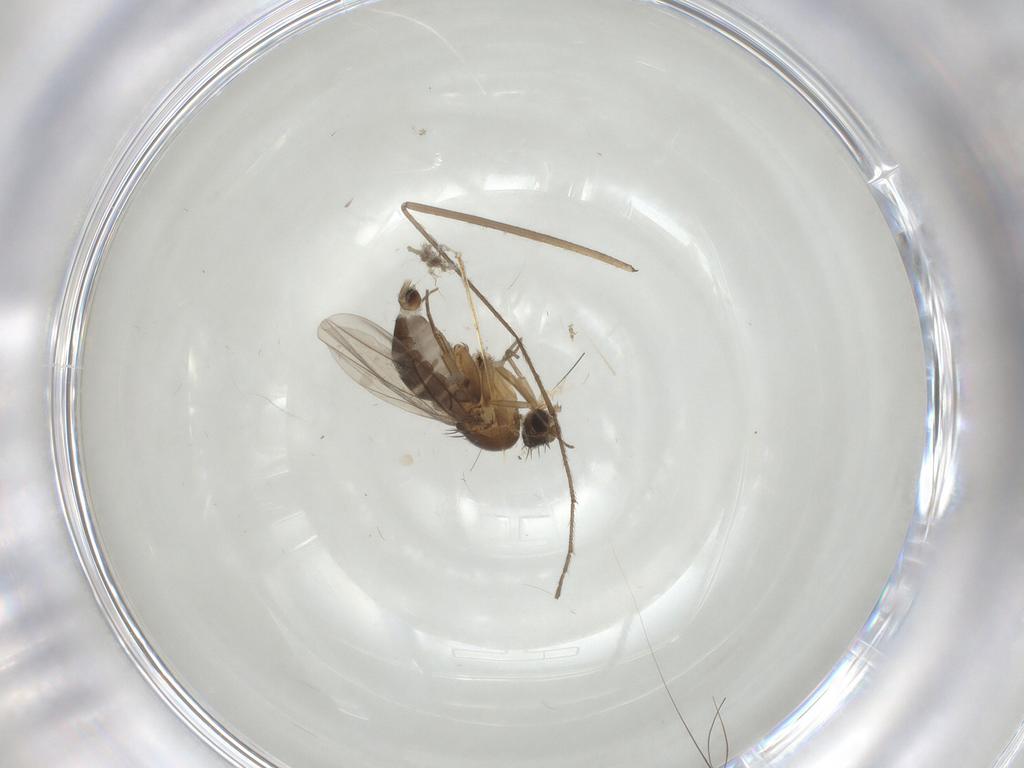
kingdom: Animalia
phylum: Arthropoda
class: Insecta
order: Diptera
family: Phoridae
